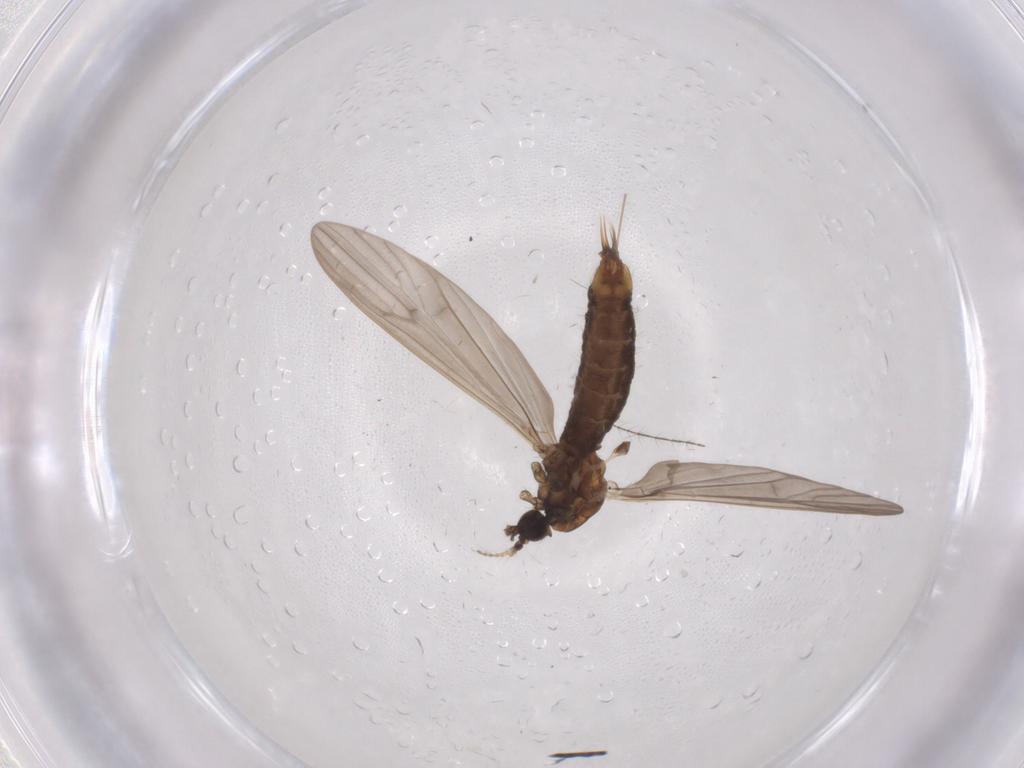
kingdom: Animalia
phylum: Arthropoda
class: Insecta
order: Diptera
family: Limoniidae
